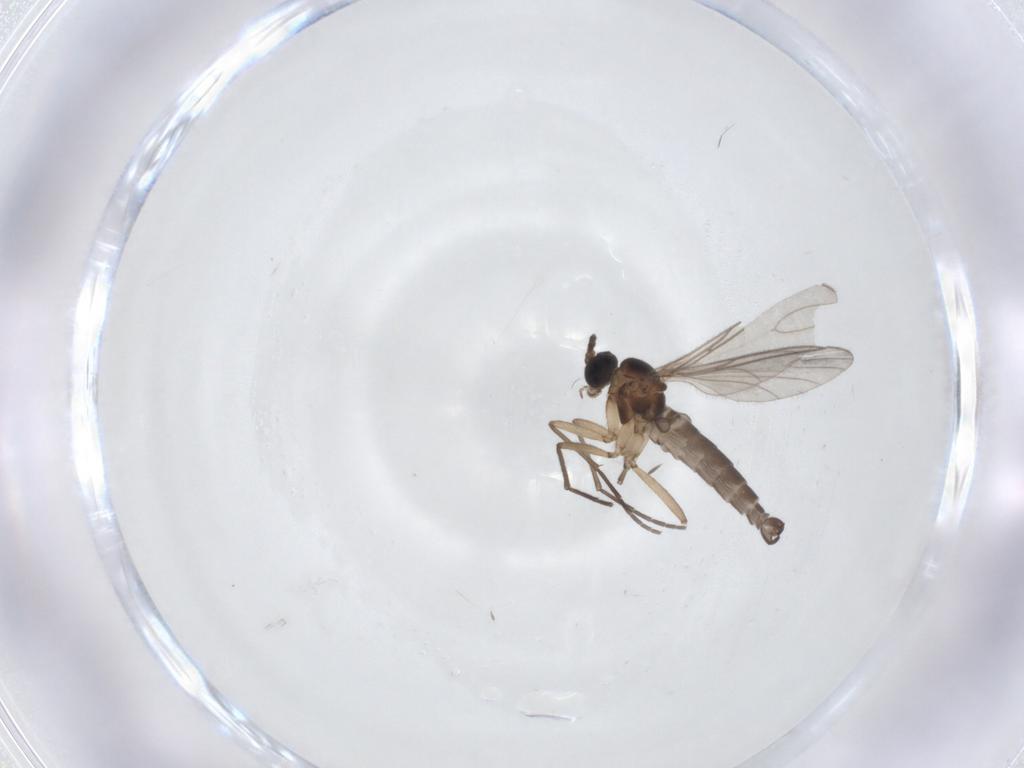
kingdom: Animalia
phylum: Arthropoda
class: Insecta
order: Diptera
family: Sciaridae
